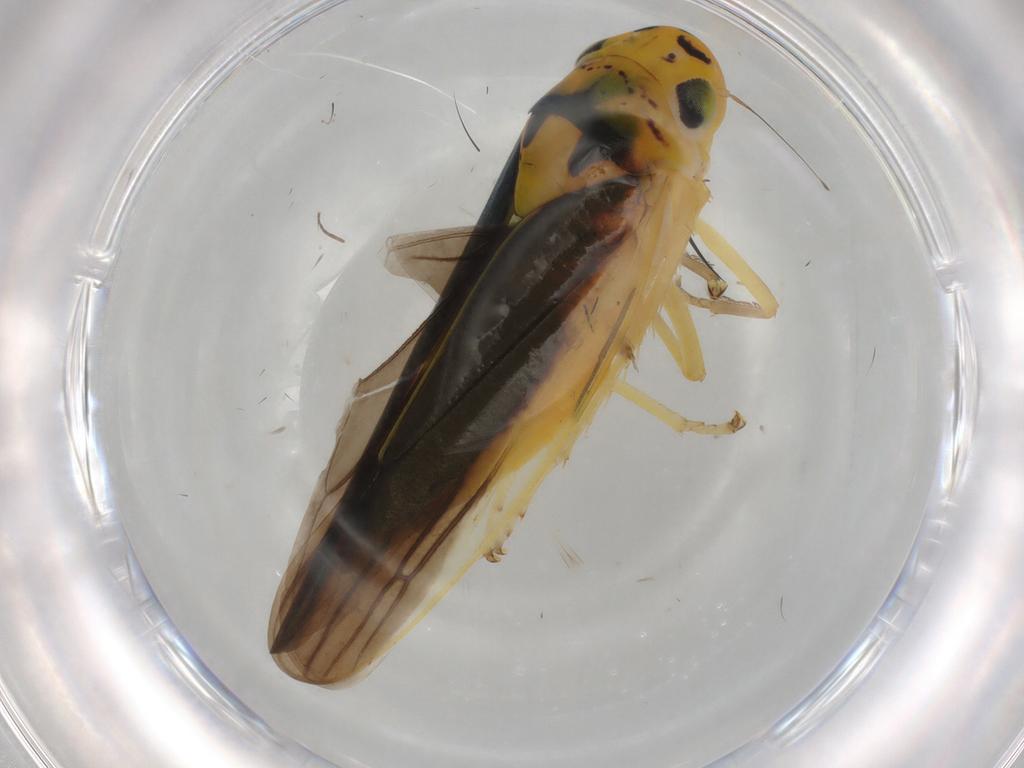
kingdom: Animalia
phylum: Arthropoda
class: Insecta
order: Hemiptera
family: Cicadellidae
